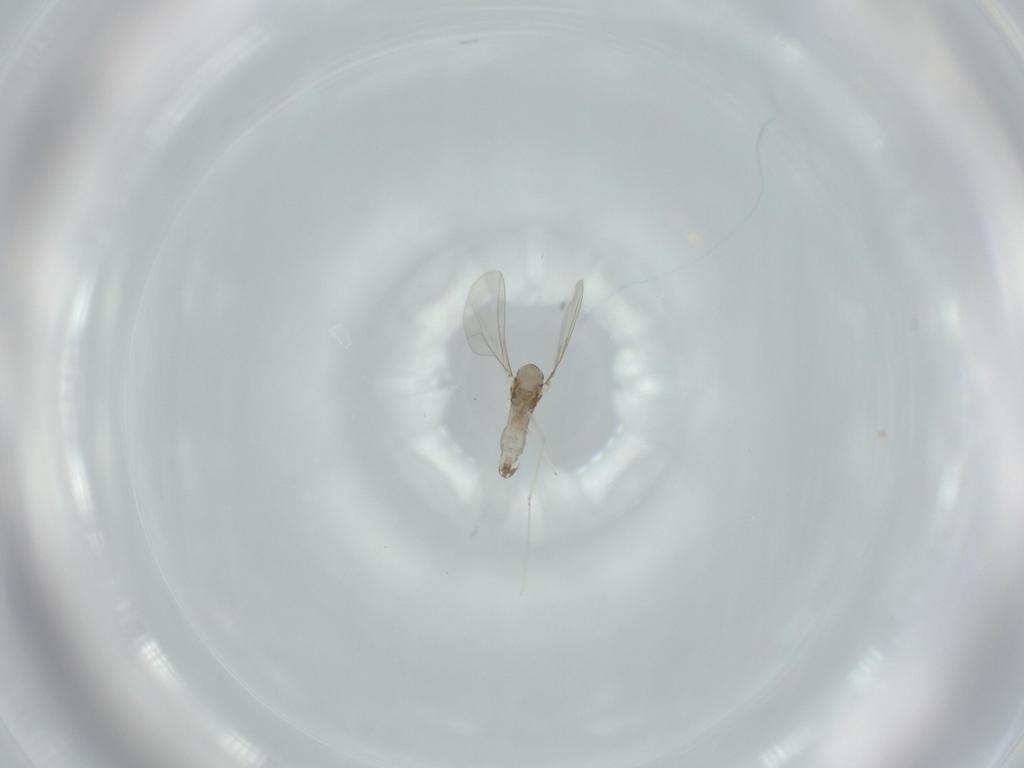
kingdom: Animalia
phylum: Arthropoda
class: Insecta
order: Diptera
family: Cecidomyiidae
